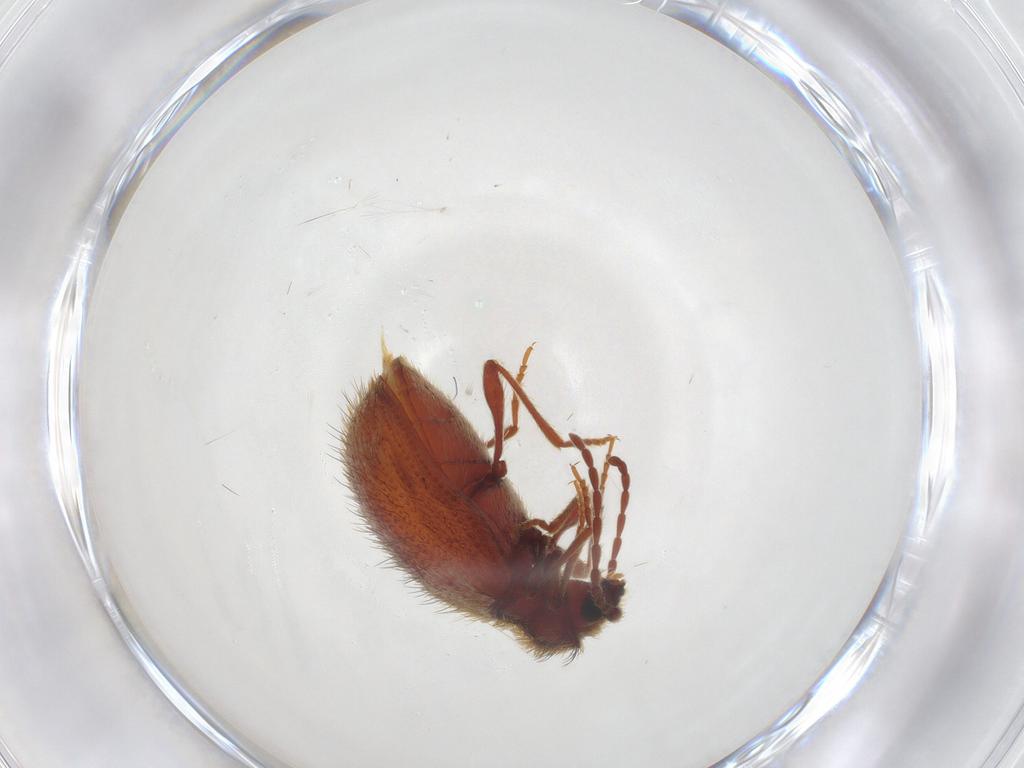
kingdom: Animalia
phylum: Arthropoda
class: Insecta
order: Coleoptera
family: Ptinidae
